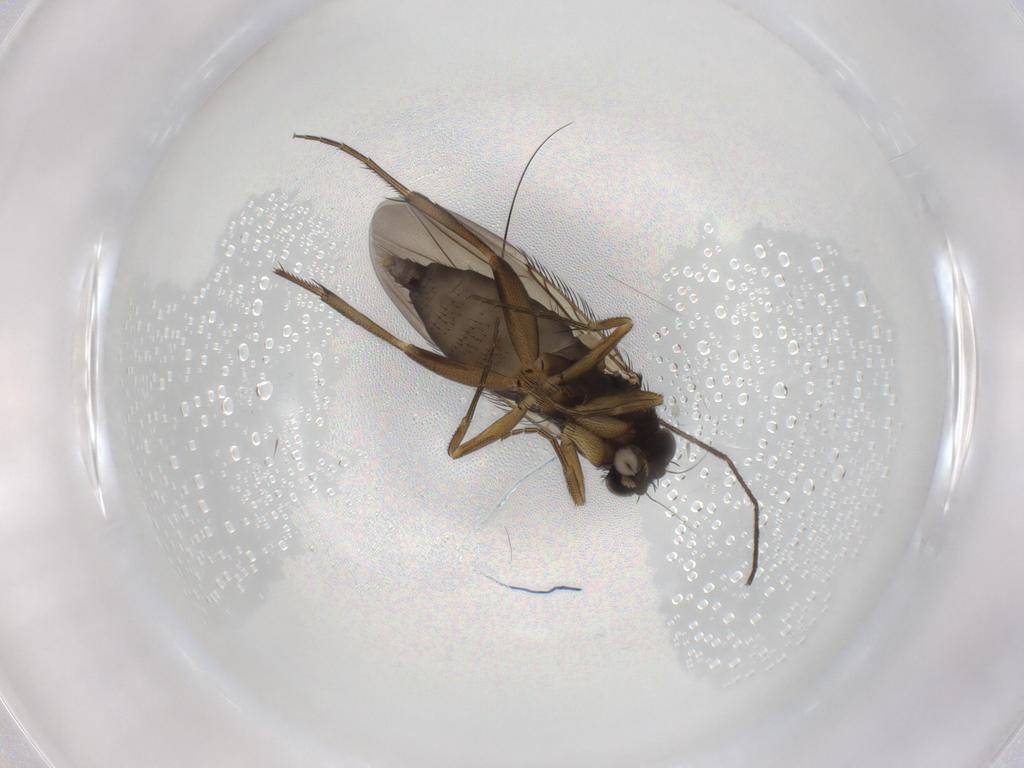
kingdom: Animalia
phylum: Arthropoda
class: Insecta
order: Diptera
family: Phoridae
